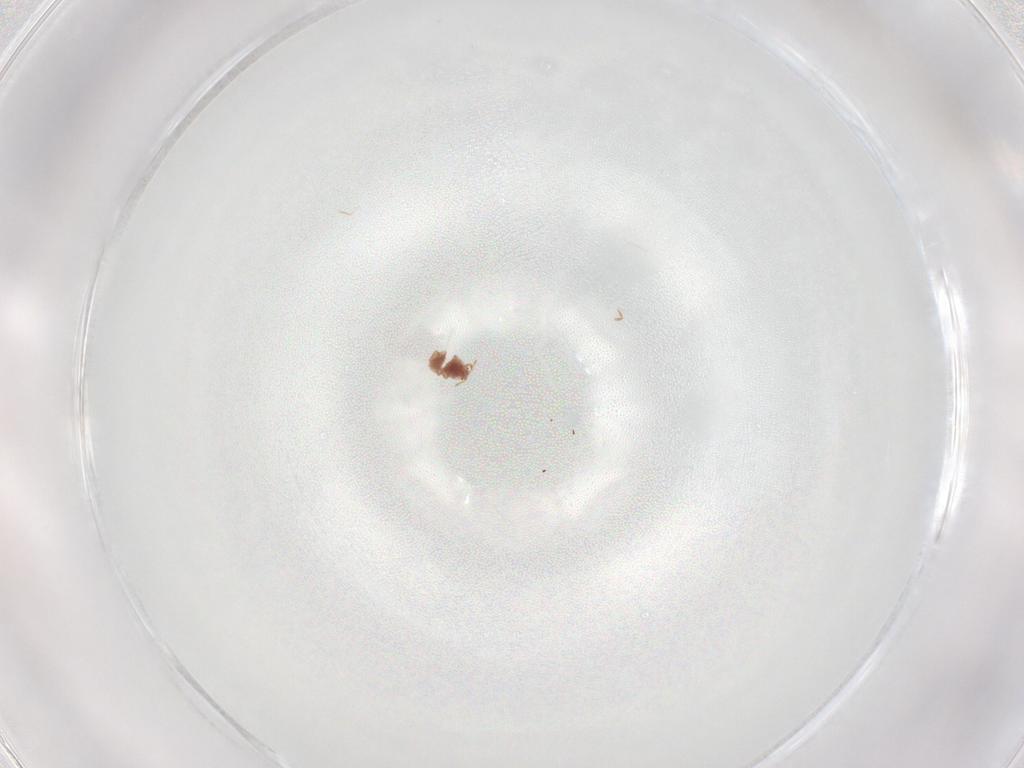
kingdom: Animalia
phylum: Arthropoda
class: Arachnida
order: Trombidiformes
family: Eupodidae
